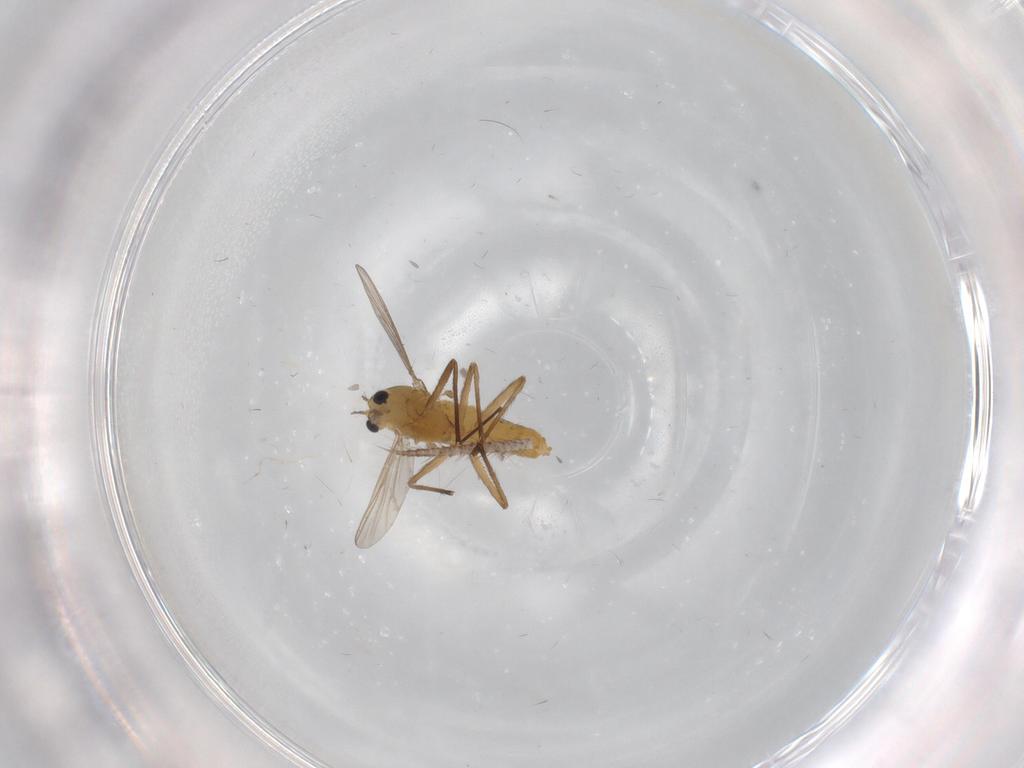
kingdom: Animalia
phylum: Arthropoda
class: Insecta
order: Diptera
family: Chironomidae
